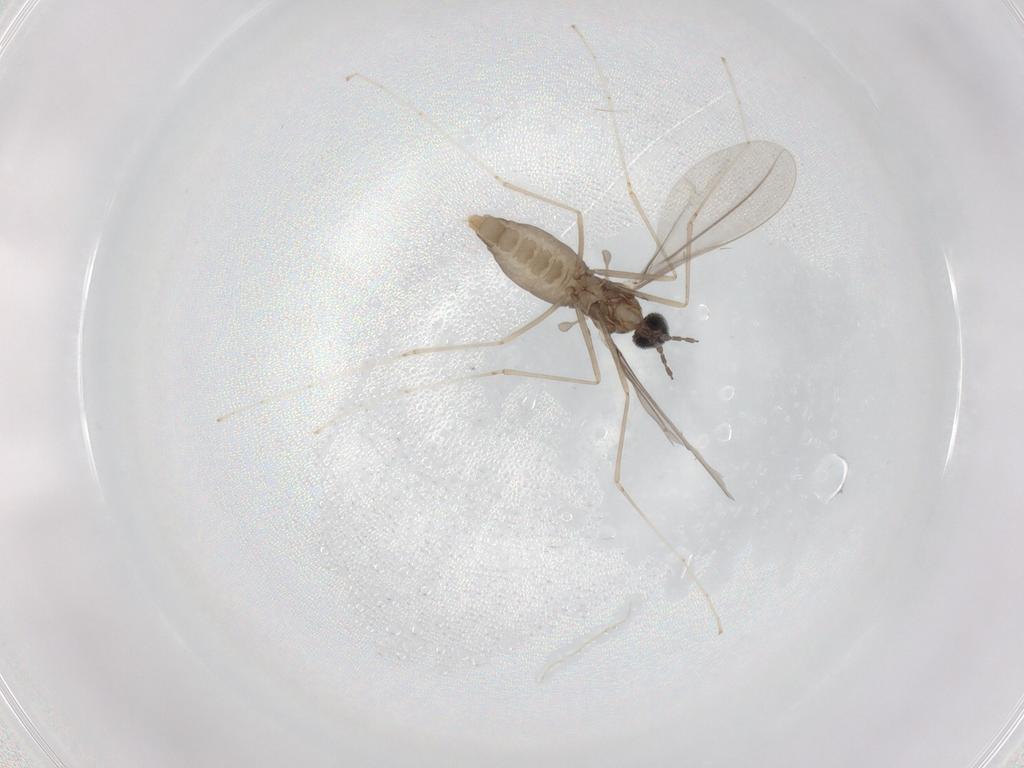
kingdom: Animalia
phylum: Arthropoda
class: Insecta
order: Diptera
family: Cecidomyiidae
